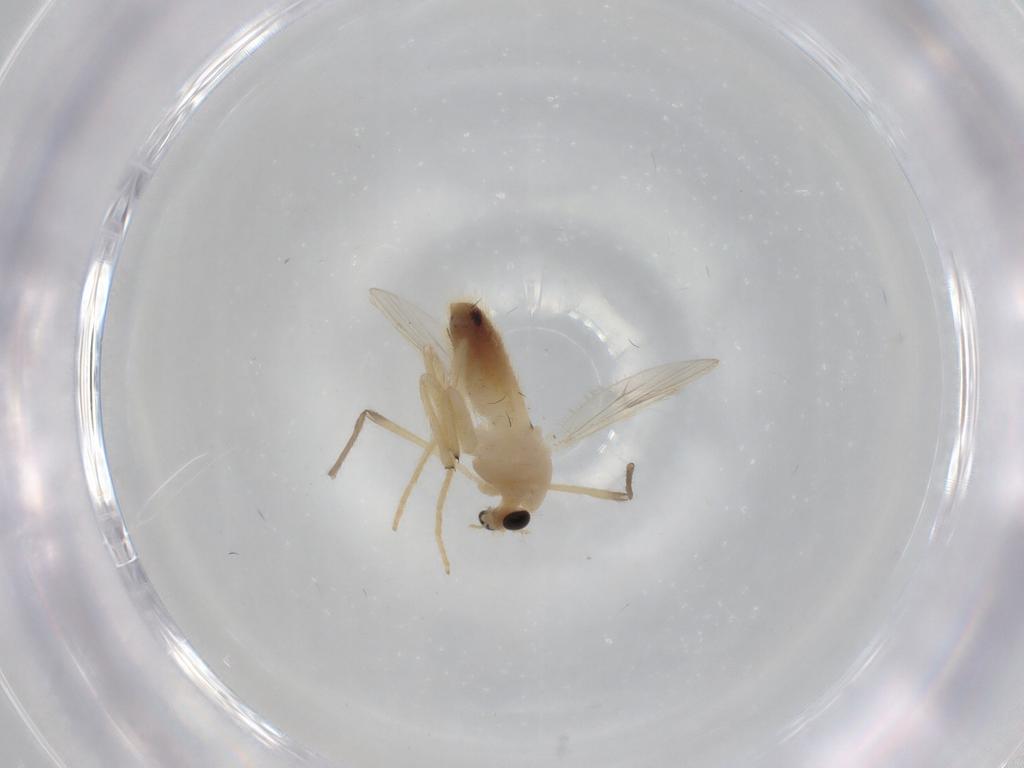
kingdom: Animalia
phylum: Arthropoda
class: Insecta
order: Diptera
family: Chironomidae
